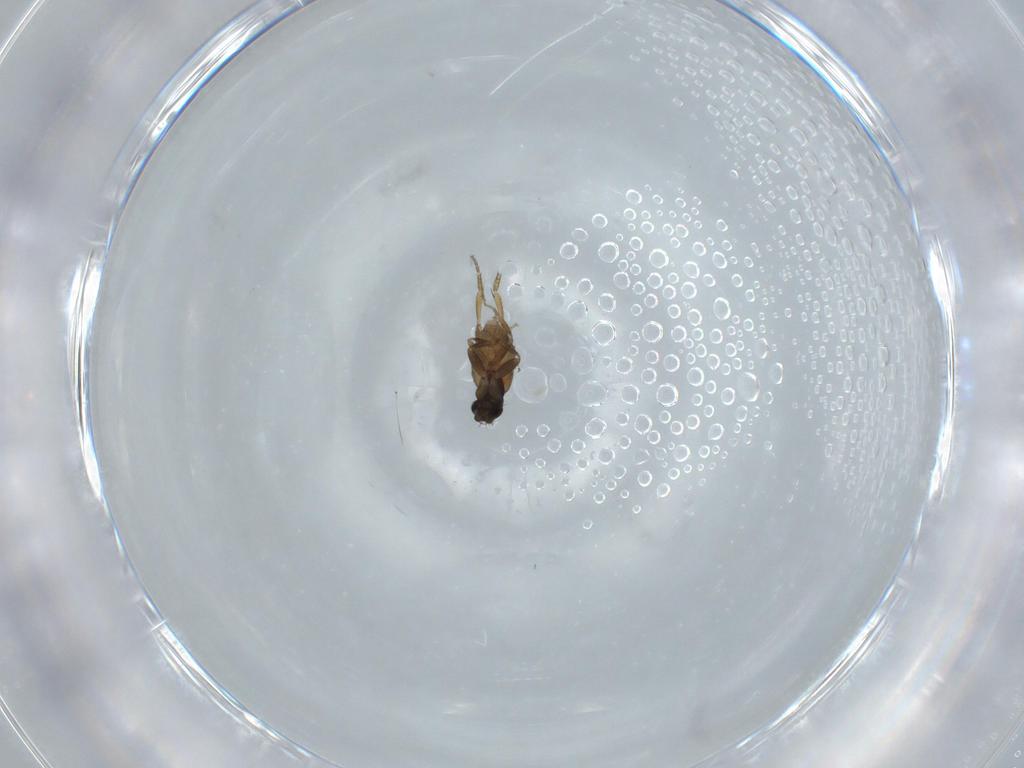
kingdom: Animalia
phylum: Arthropoda
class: Insecta
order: Diptera
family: Phoridae
